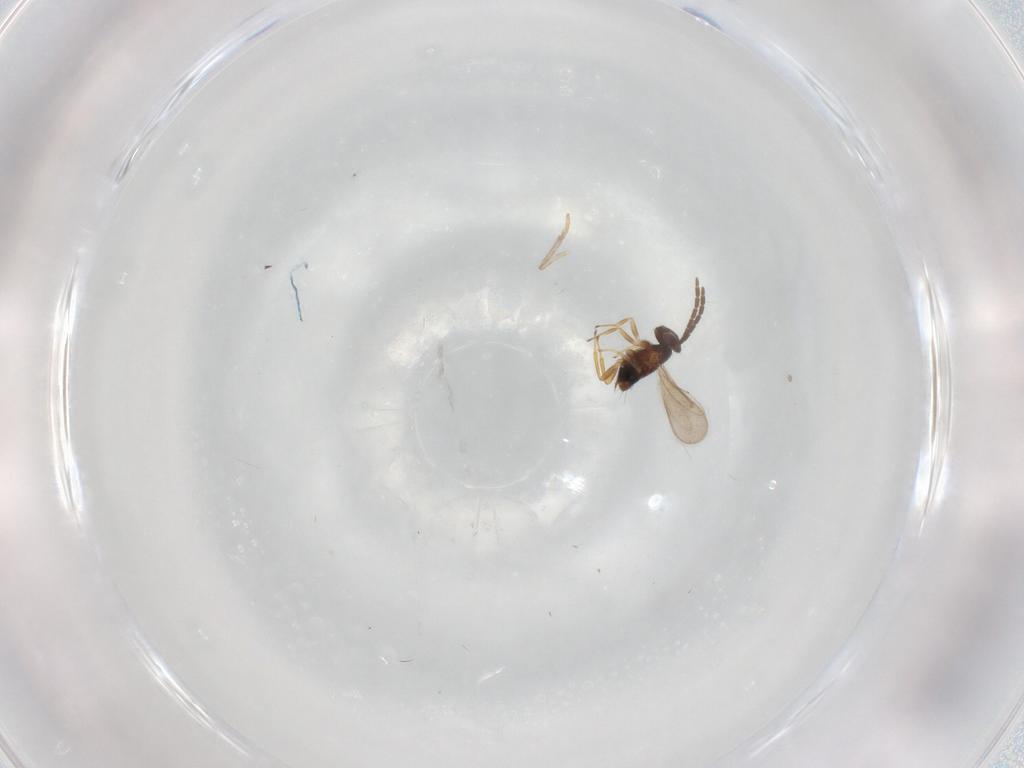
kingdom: Animalia
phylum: Arthropoda
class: Insecta
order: Hymenoptera
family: Aphelinidae
